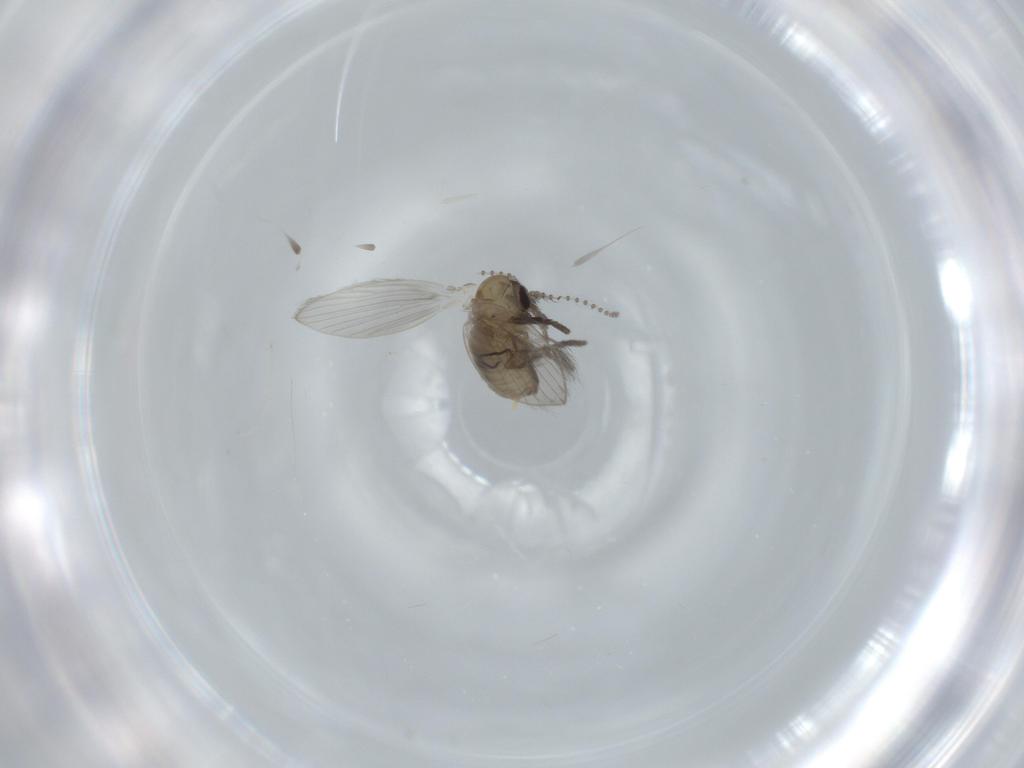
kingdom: Animalia
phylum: Arthropoda
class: Insecta
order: Diptera
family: Psychodidae
